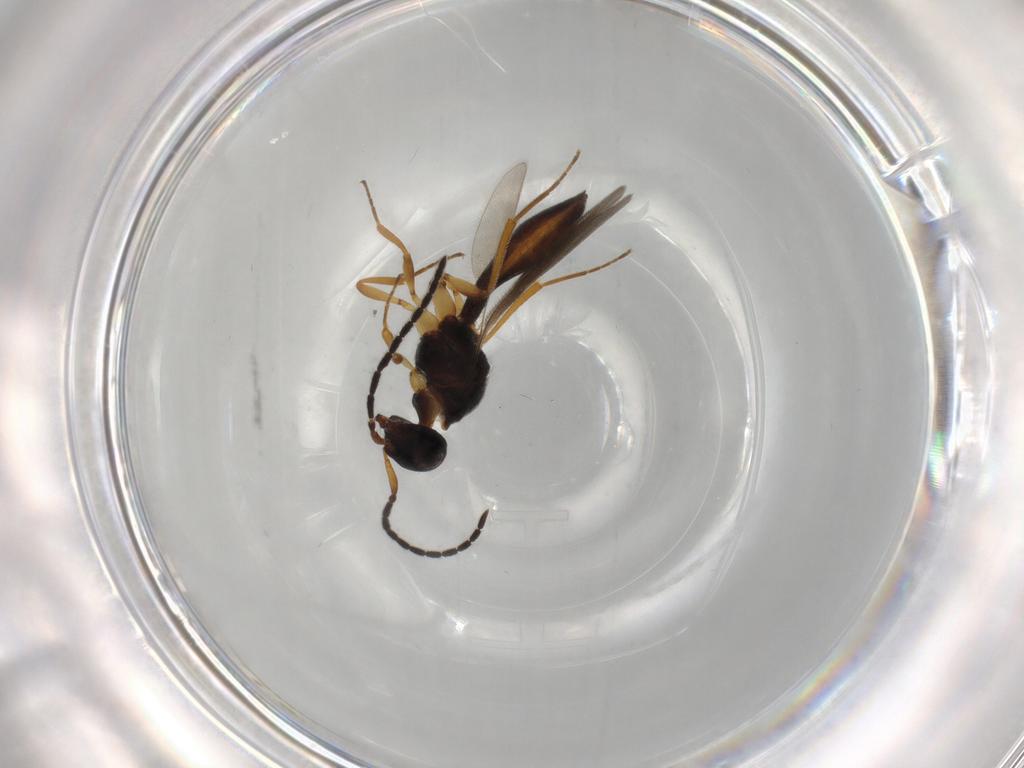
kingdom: Animalia
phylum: Arthropoda
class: Insecta
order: Hymenoptera
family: Scelionidae
